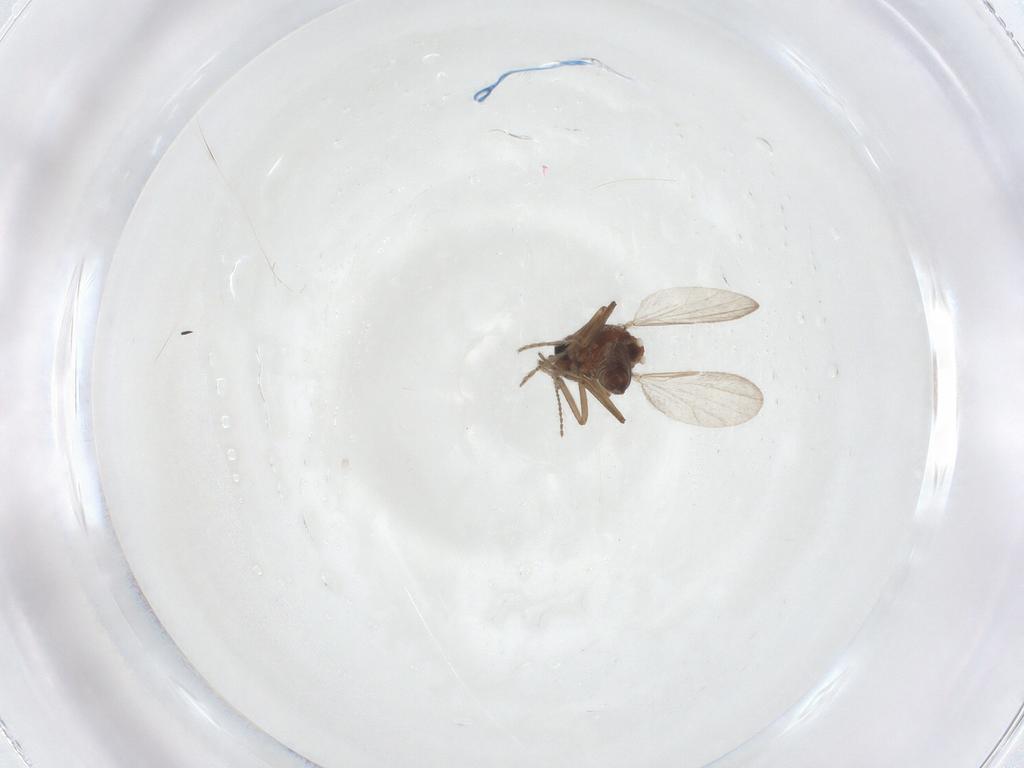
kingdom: Animalia
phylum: Arthropoda
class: Insecta
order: Diptera
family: Ceratopogonidae
